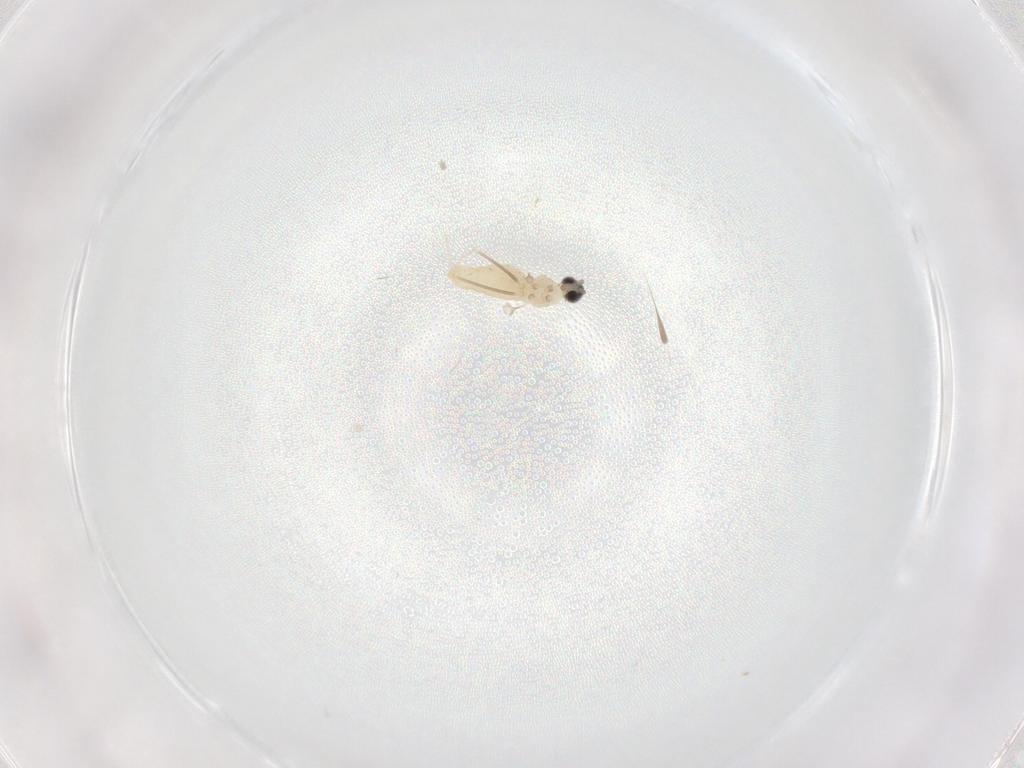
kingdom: Animalia
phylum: Arthropoda
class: Insecta
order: Diptera
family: Cecidomyiidae
